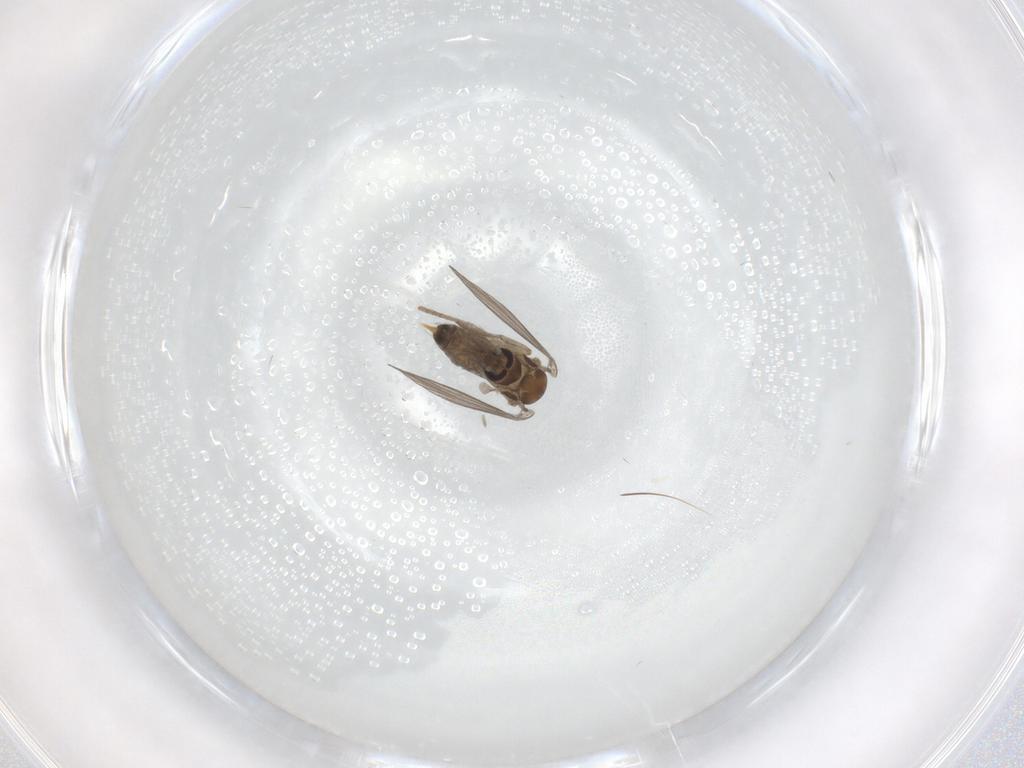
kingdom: Animalia
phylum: Arthropoda
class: Insecta
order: Diptera
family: Psychodidae
